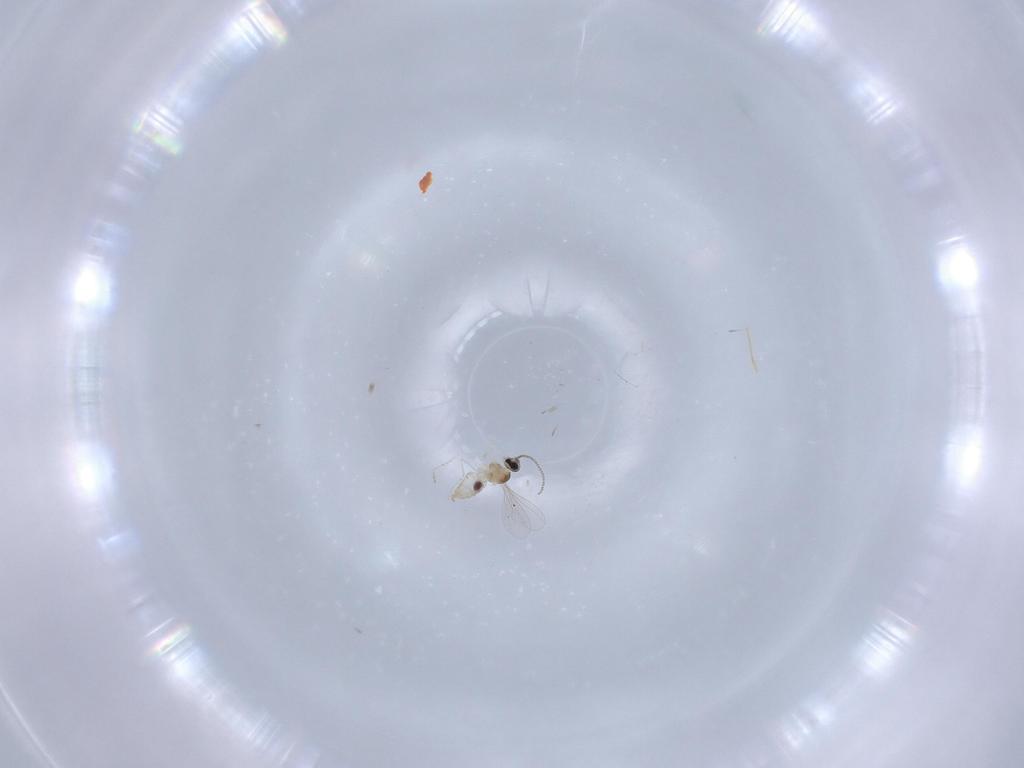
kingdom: Animalia
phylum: Arthropoda
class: Insecta
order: Diptera
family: Cecidomyiidae
